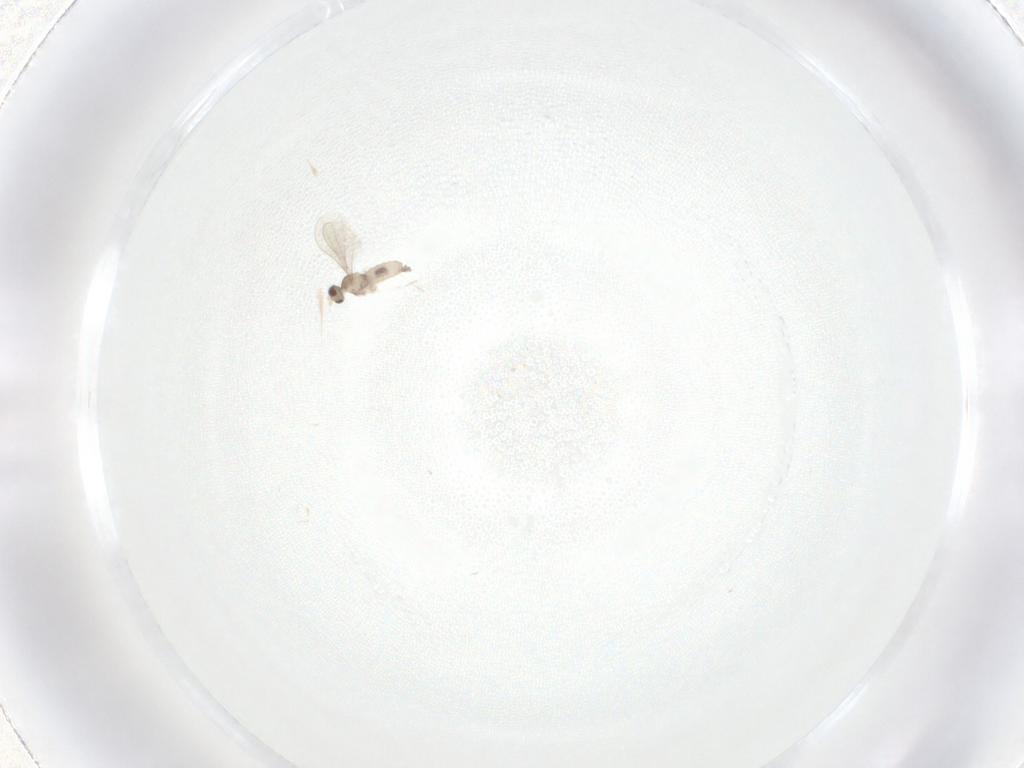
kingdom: Animalia
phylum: Arthropoda
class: Insecta
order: Diptera
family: Cecidomyiidae
